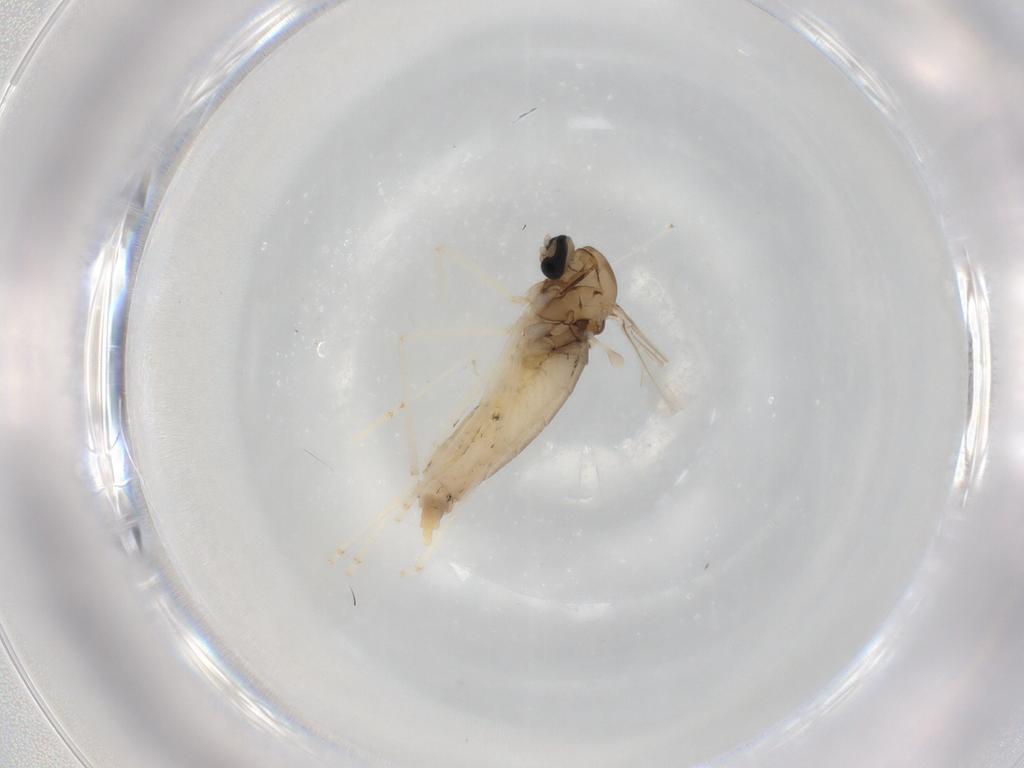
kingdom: Animalia
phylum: Arthropoda
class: Insecta
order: Diptera
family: Cecidomyiidae
